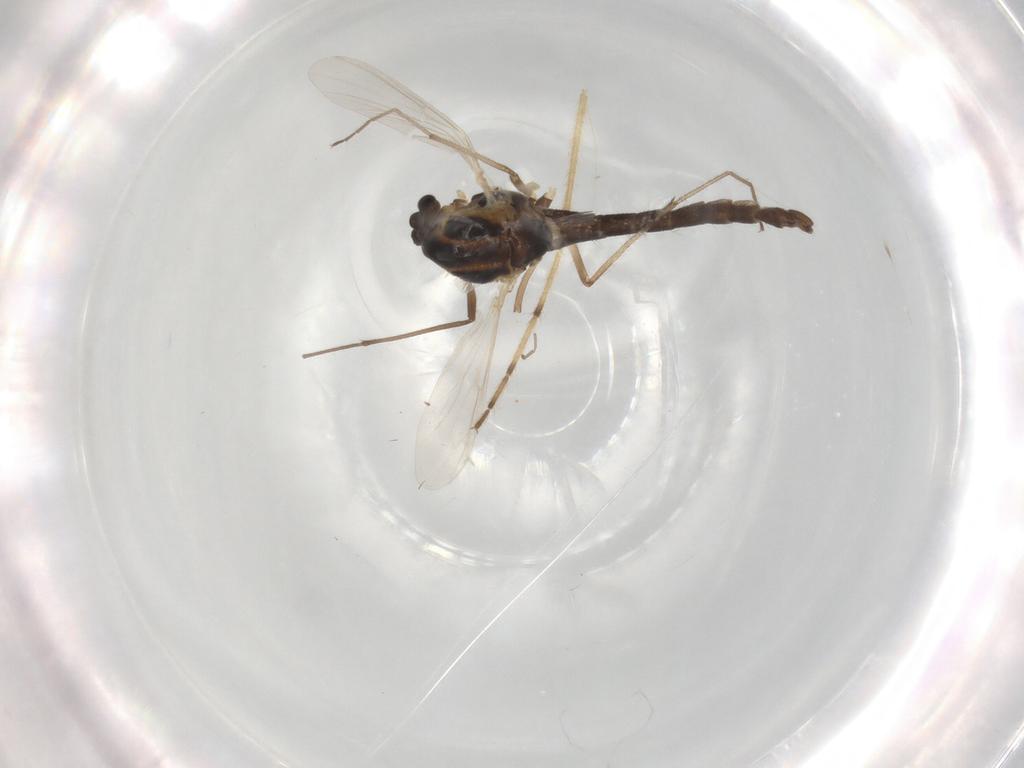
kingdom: Animalia
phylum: Arthropoda
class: Insecta
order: Diptera
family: Chironomidae
